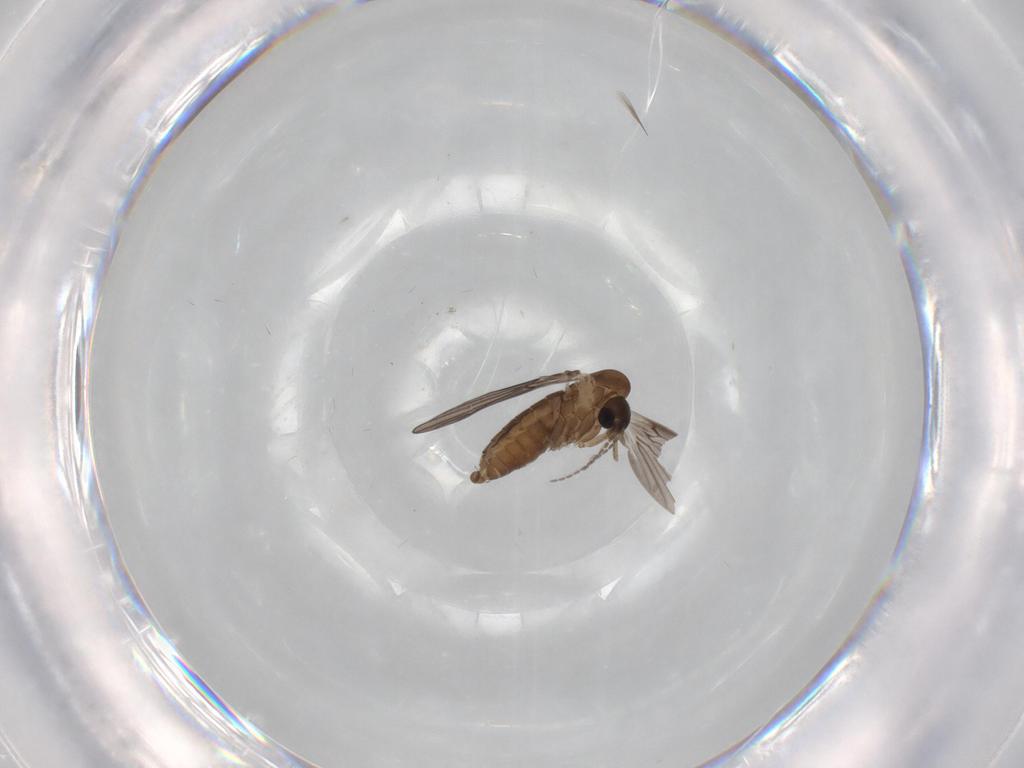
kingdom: Animalia
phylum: Arthropoda
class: Insecta
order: Diptera
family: Psychodidae
